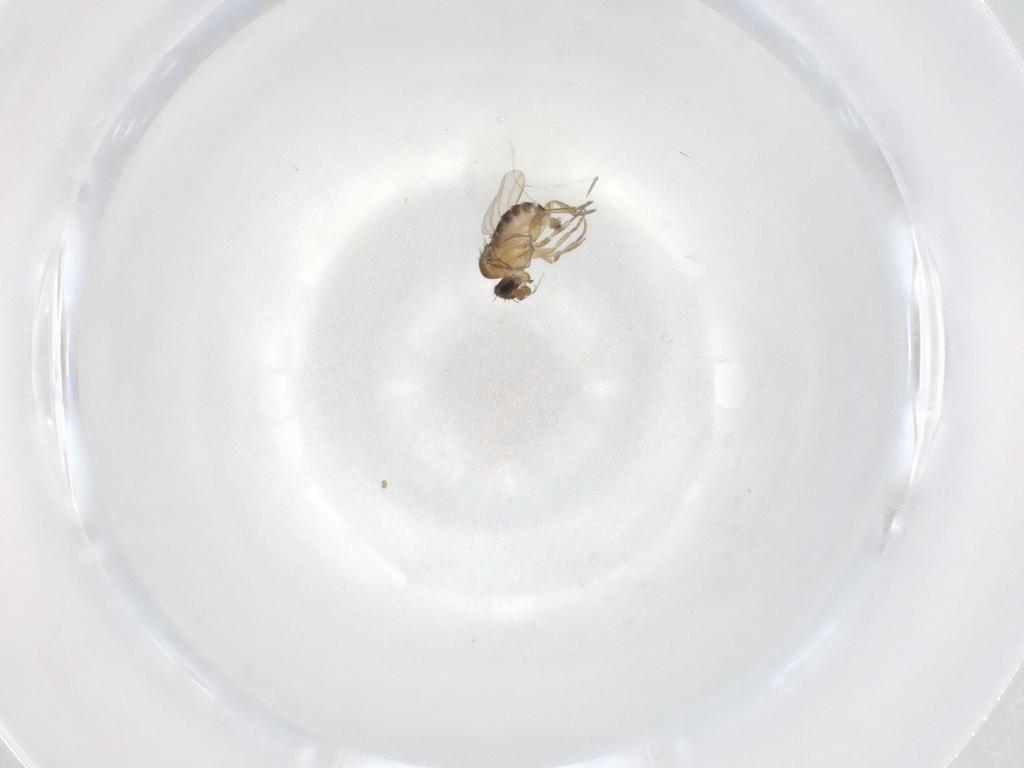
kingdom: Animalia
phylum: Arthropoda
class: Insecta
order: Diptera
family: Phoridae
